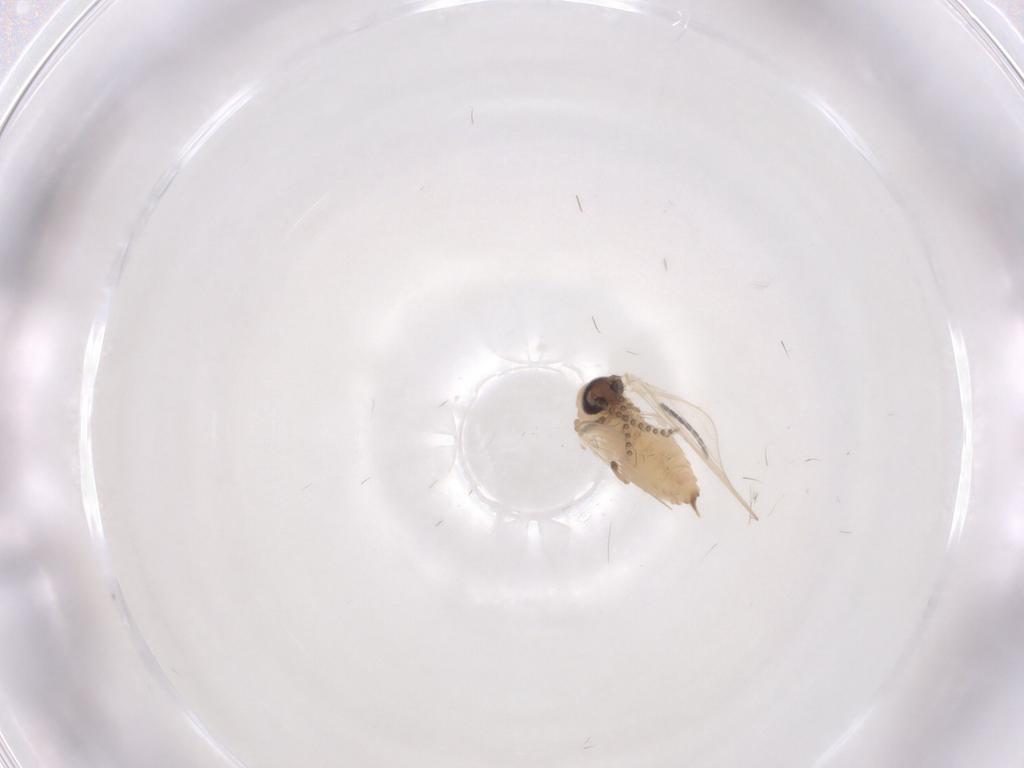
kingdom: Animalia
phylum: Arthropoda
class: Insecta
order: Diptera
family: Psychodidae
